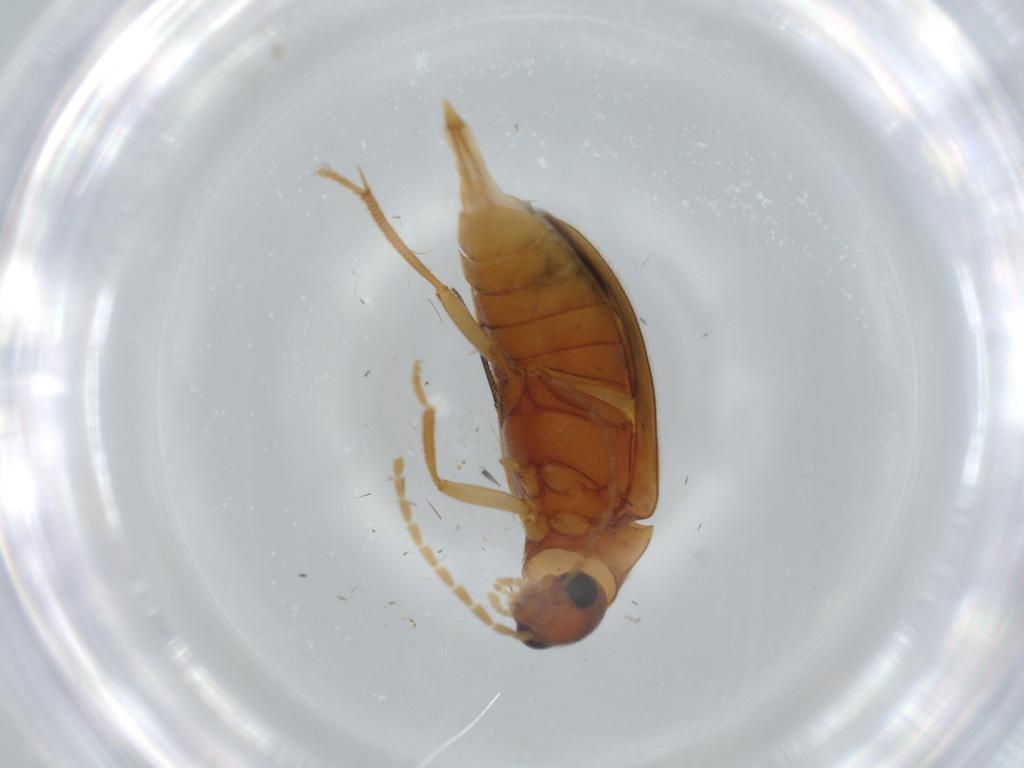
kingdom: Animalia
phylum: Arthropoda
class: Insecta
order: Coleoptera
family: Ptilodactylidae
